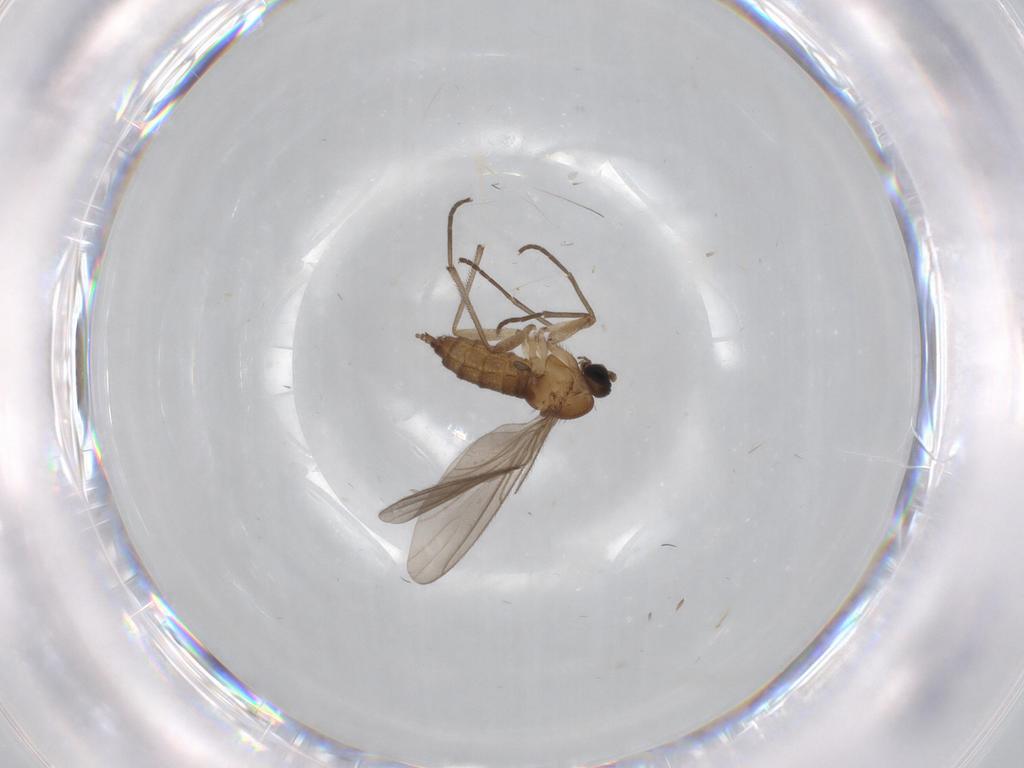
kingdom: Animalia
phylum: Arthropoda
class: Insecta
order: Diptera
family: Sciaridae
